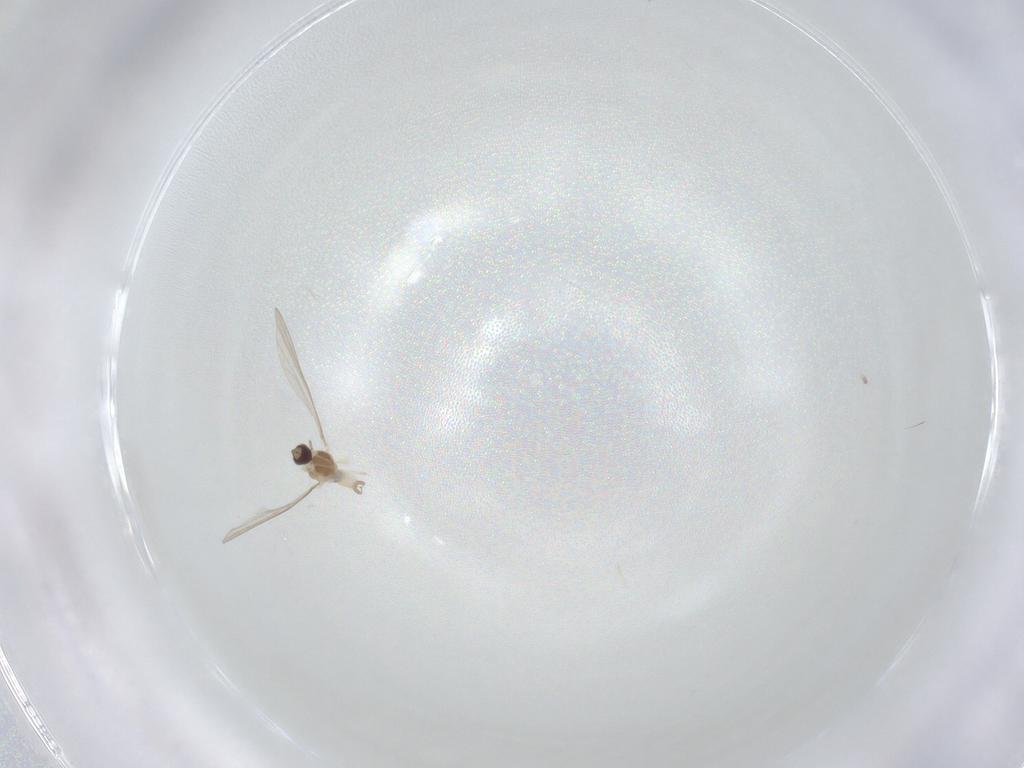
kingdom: Animalia
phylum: Arthropoda
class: Insecta
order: Diptera
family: Cecidomyiidae
